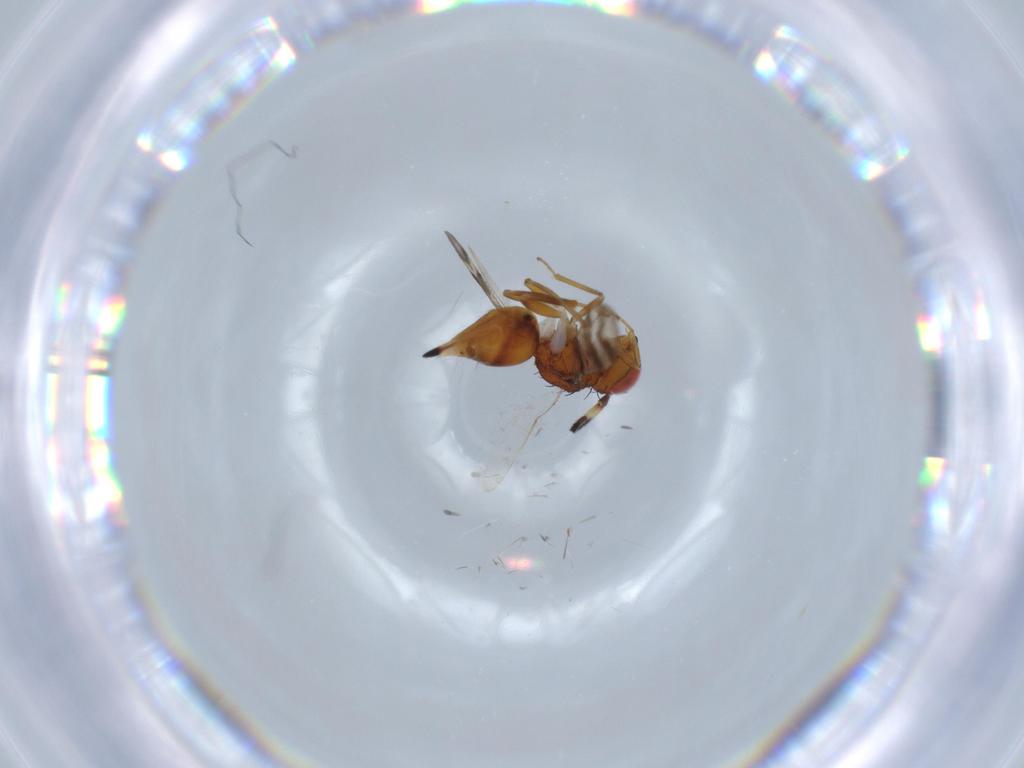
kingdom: Animalia
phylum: Arthropoda
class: Insecta
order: Hymenoptera
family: Diparidae
